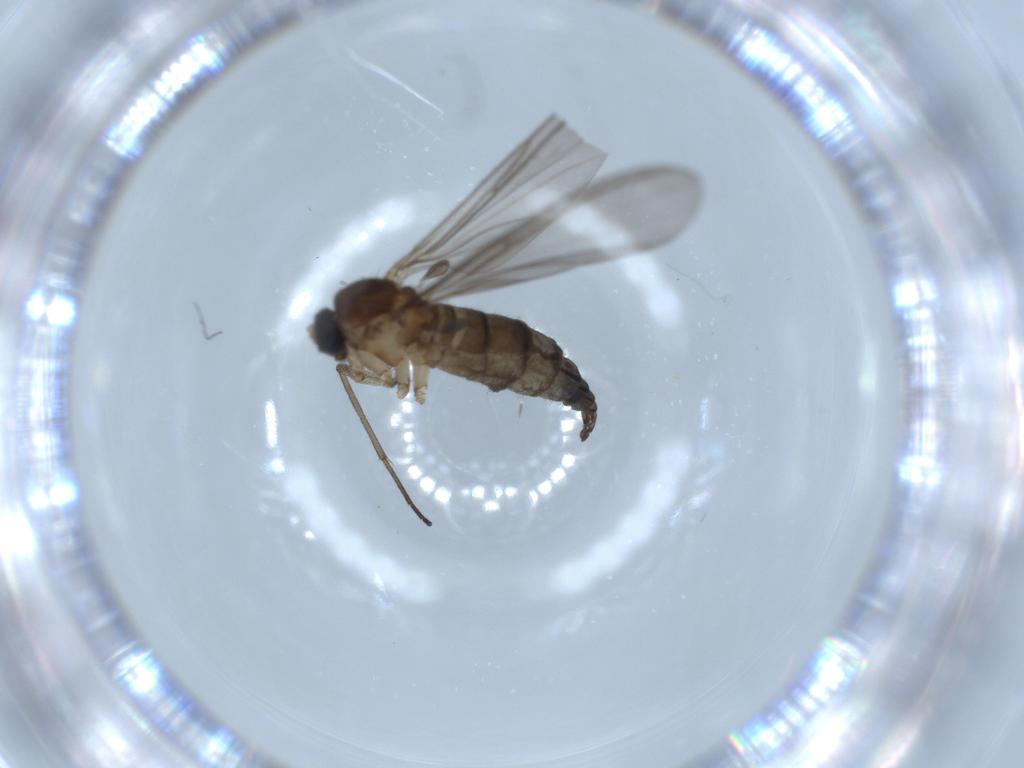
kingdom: Animalia
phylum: Arthropoda
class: Insecta
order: Diptera
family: Sciaridae
